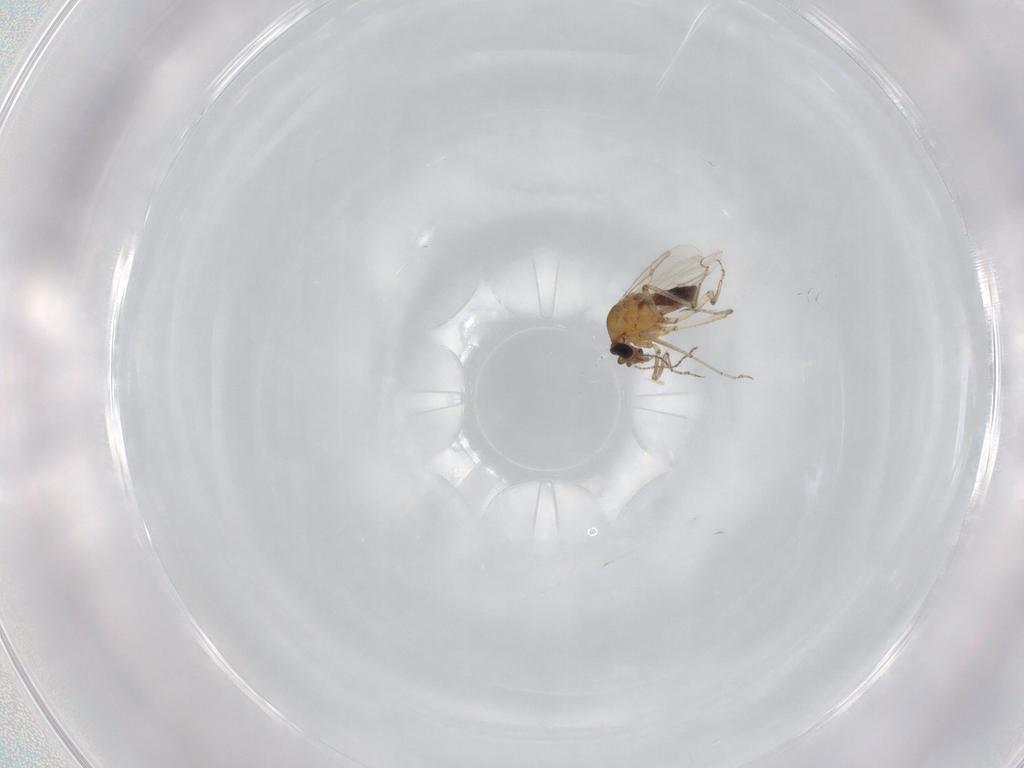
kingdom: Animalia
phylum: Arthropoda
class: Insecta
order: Diptera
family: Ceratopogonidae
